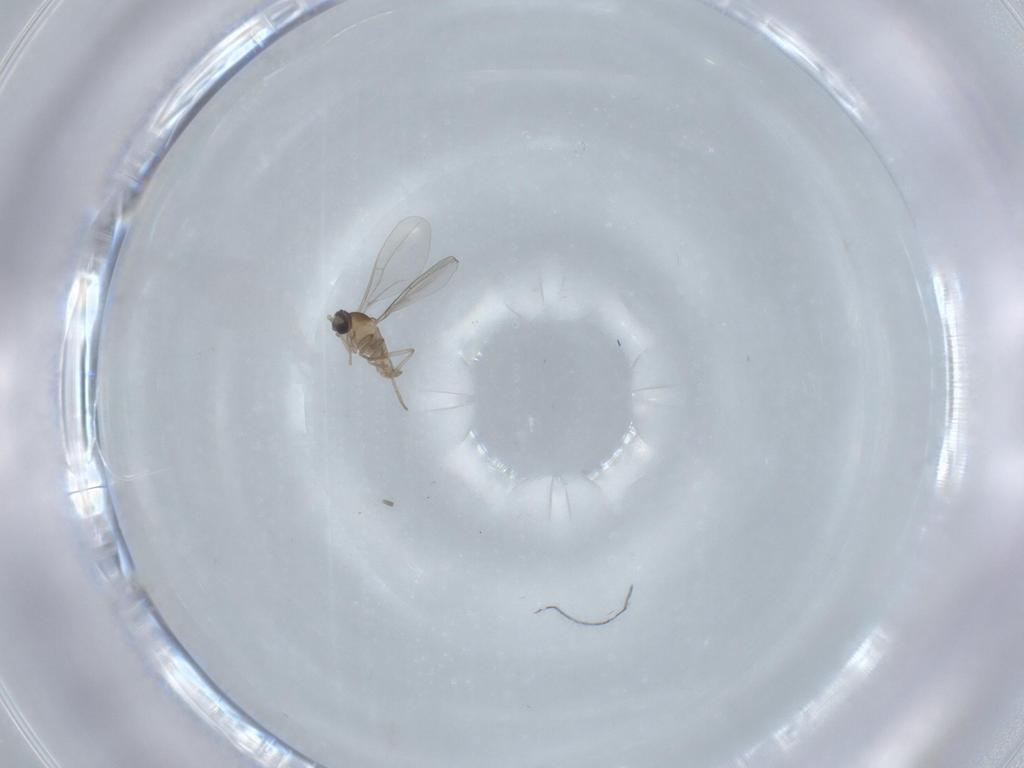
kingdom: Animalia
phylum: Arthropoda
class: Insecta
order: Diptera
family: Cecidomyiidae
